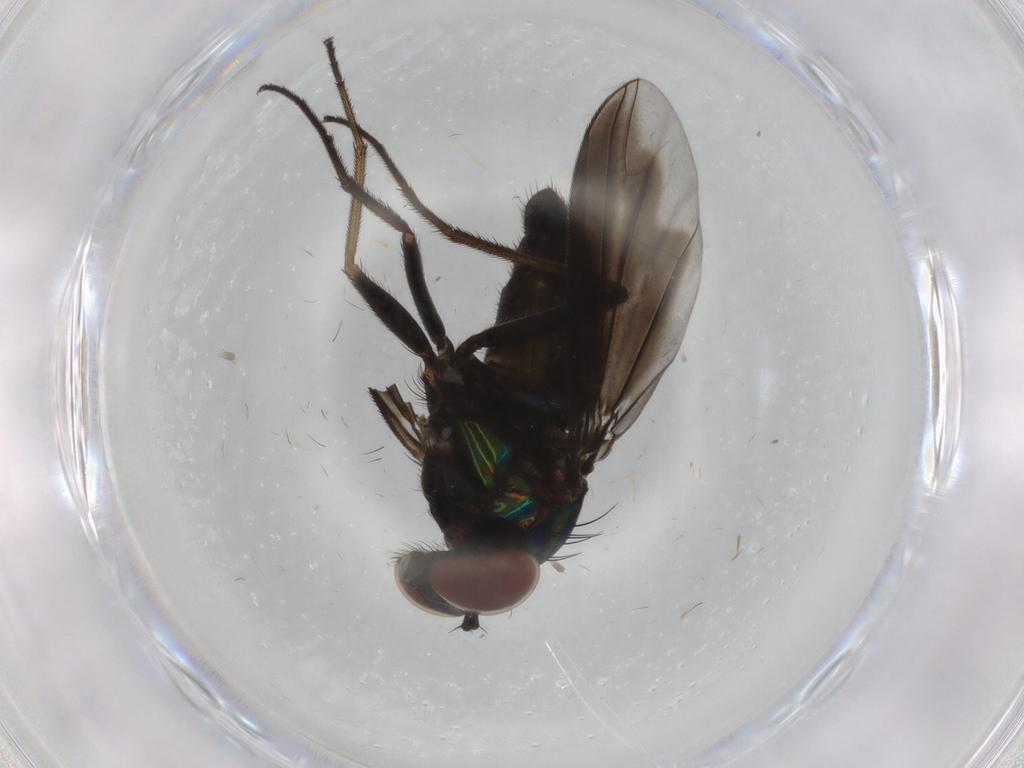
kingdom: Animalia
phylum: Arthropoda
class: Insecta
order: Diptera
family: Dolichopodidae
